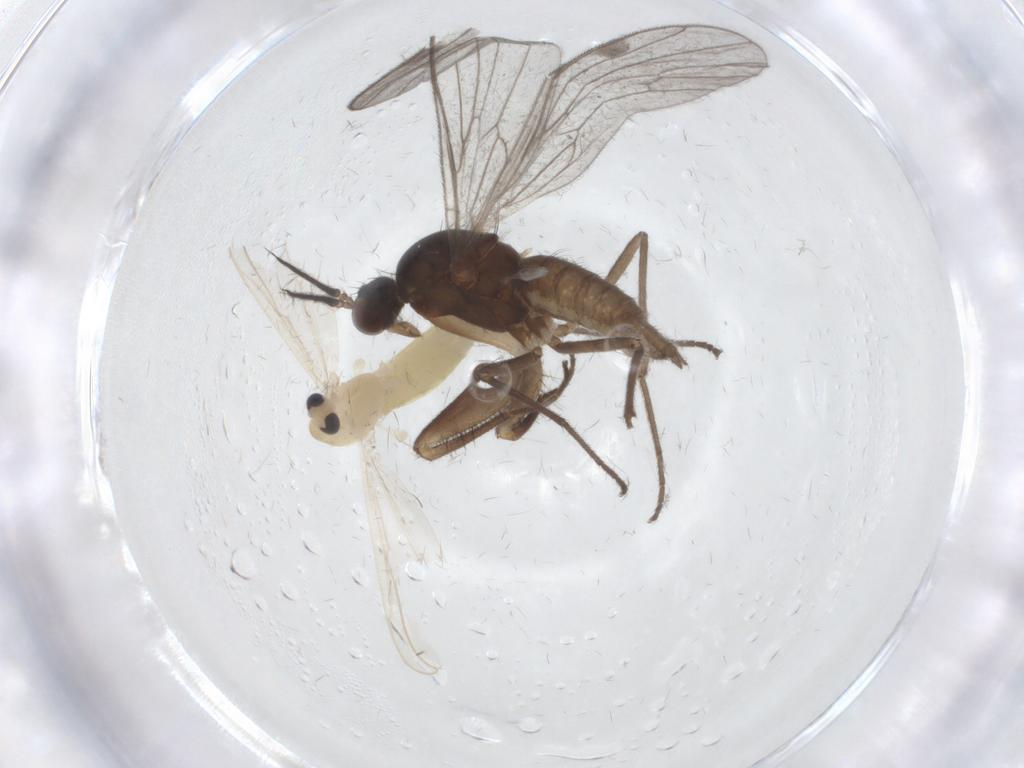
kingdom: Animalia
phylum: Arthropoda
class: Insecta
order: Diptera
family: Chironomidae
